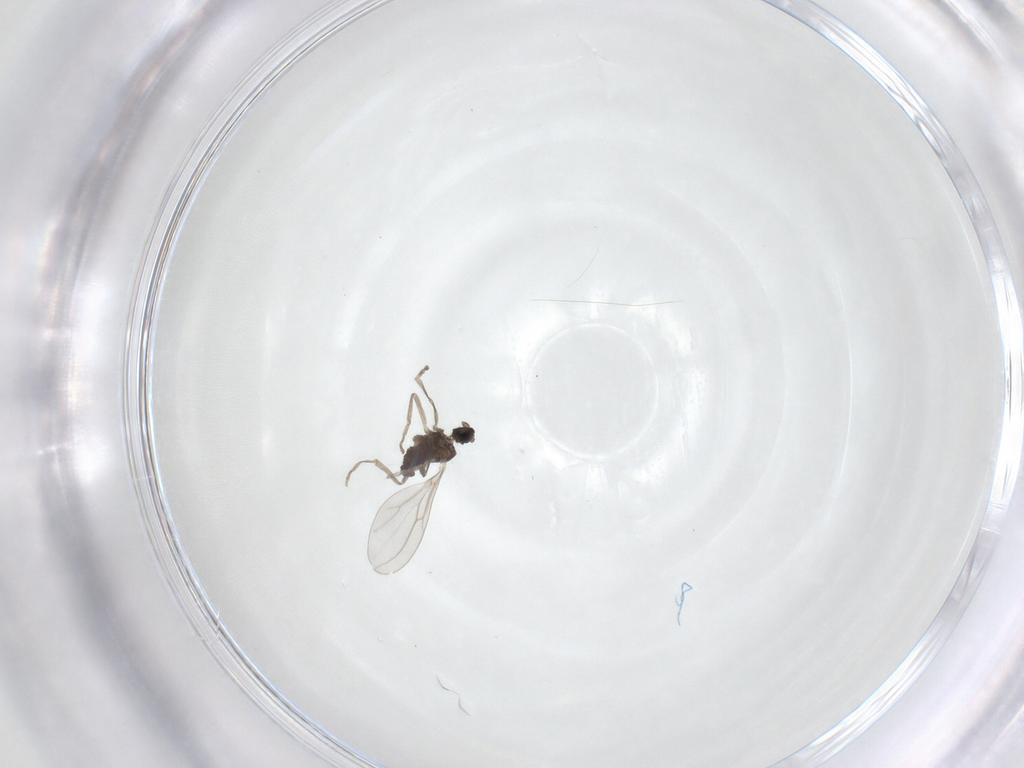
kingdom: Animalia
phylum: Arthropoda
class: Insecta
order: Diptera
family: Cecidomyiidae
